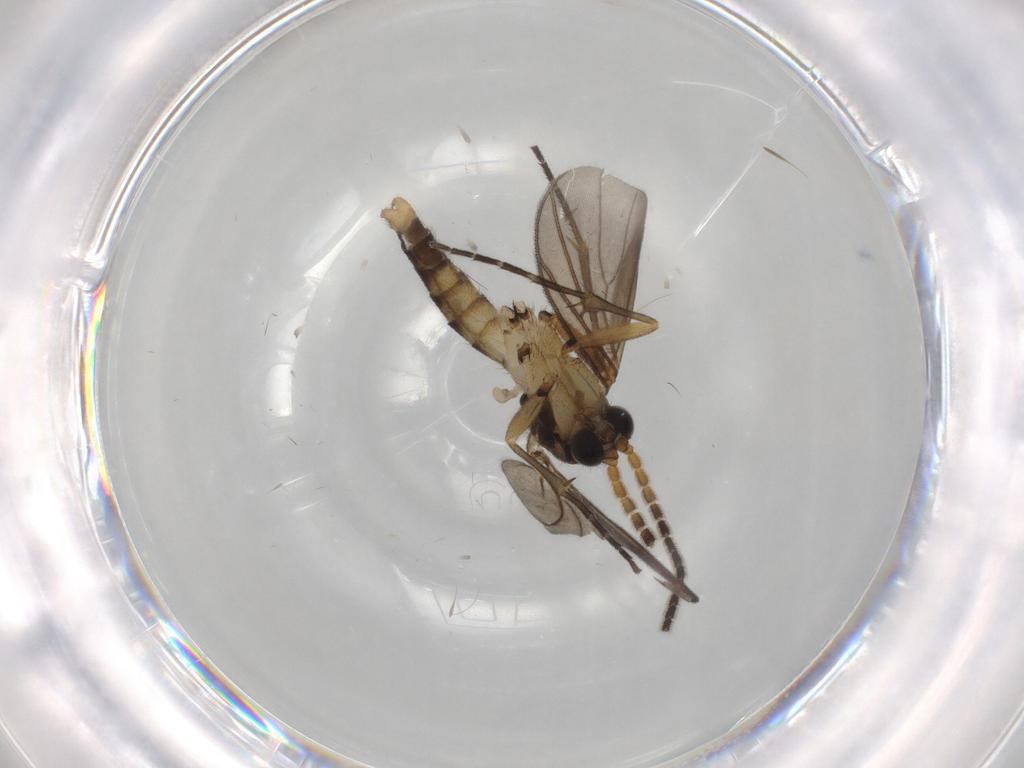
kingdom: Animalia
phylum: Arthropoda
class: Insecta
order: Diptera
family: Mycetophilidae
